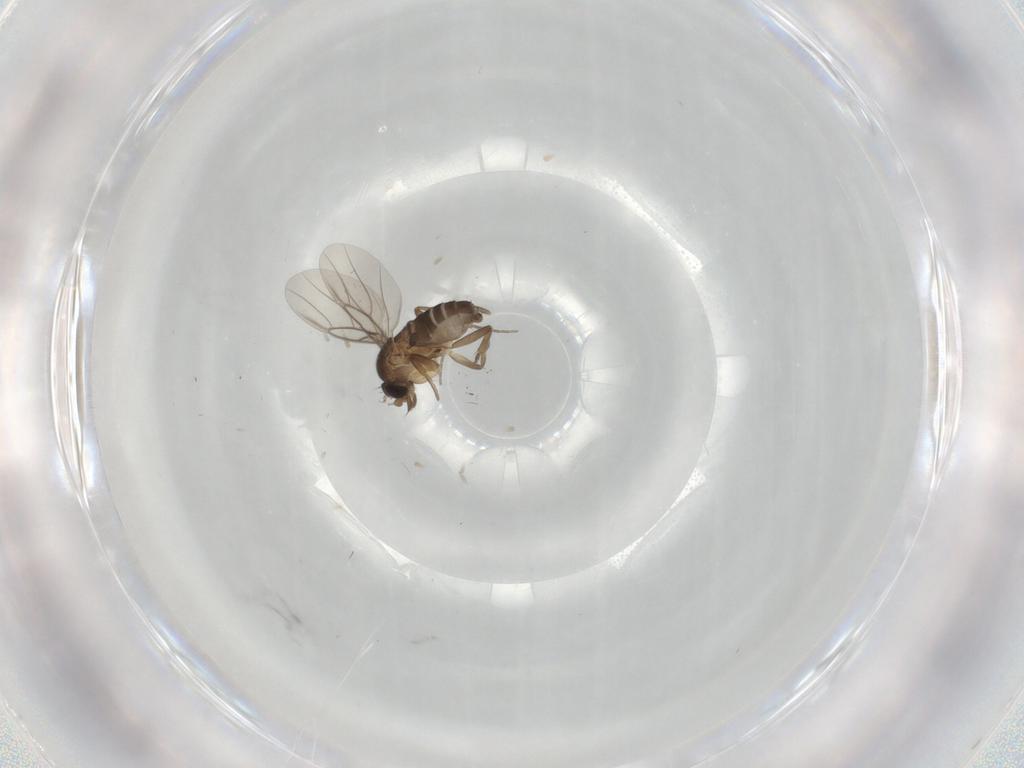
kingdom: Animalia
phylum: Arthropoda
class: Insecta
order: Diptera
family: Phoridae
